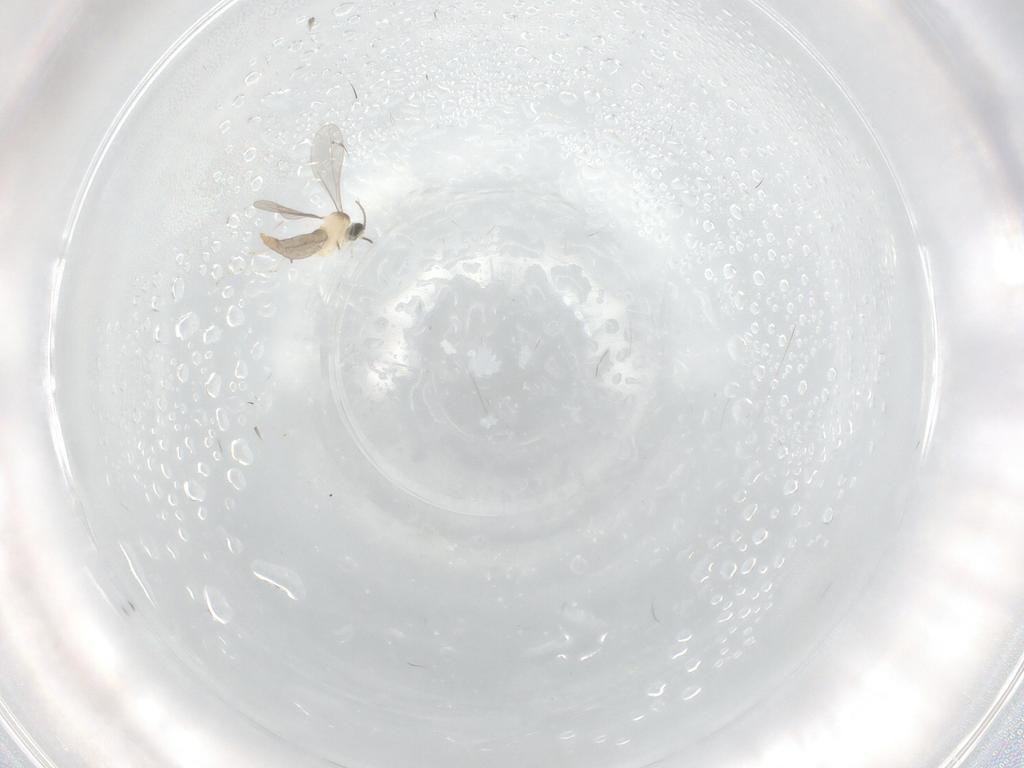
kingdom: Animalia
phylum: Arthropoda
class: Insecta
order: Diptera
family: Cecidomyiidae
